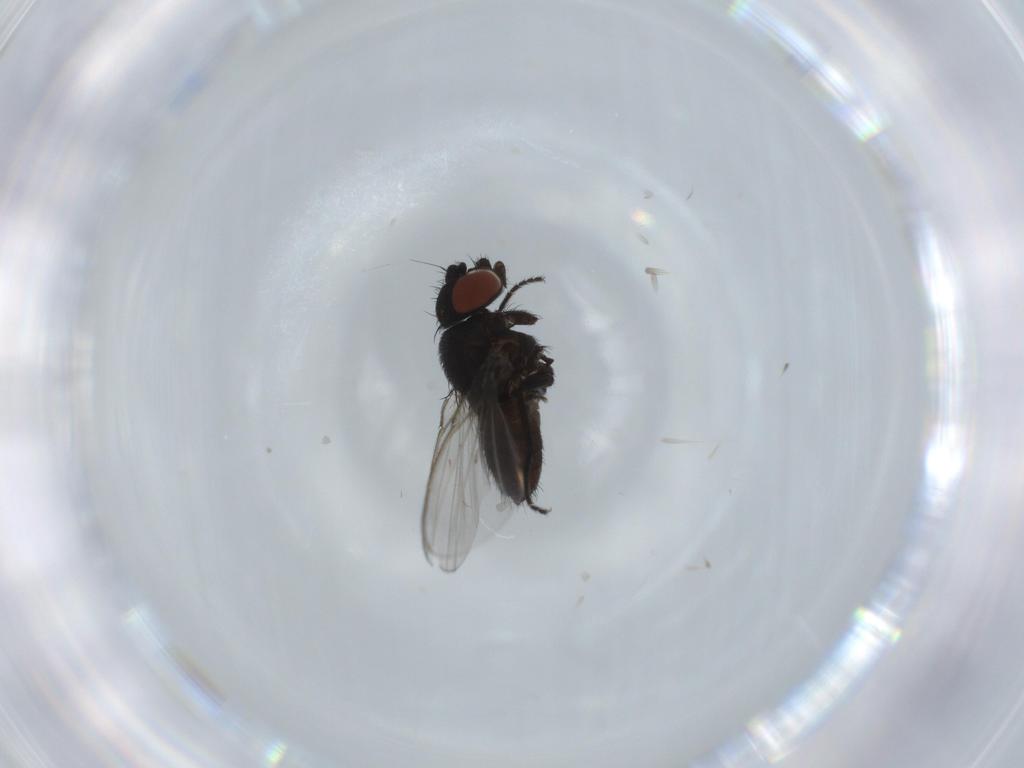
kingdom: Animalia
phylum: Arthropoda
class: Insecta
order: Diptera
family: Milichiidae
